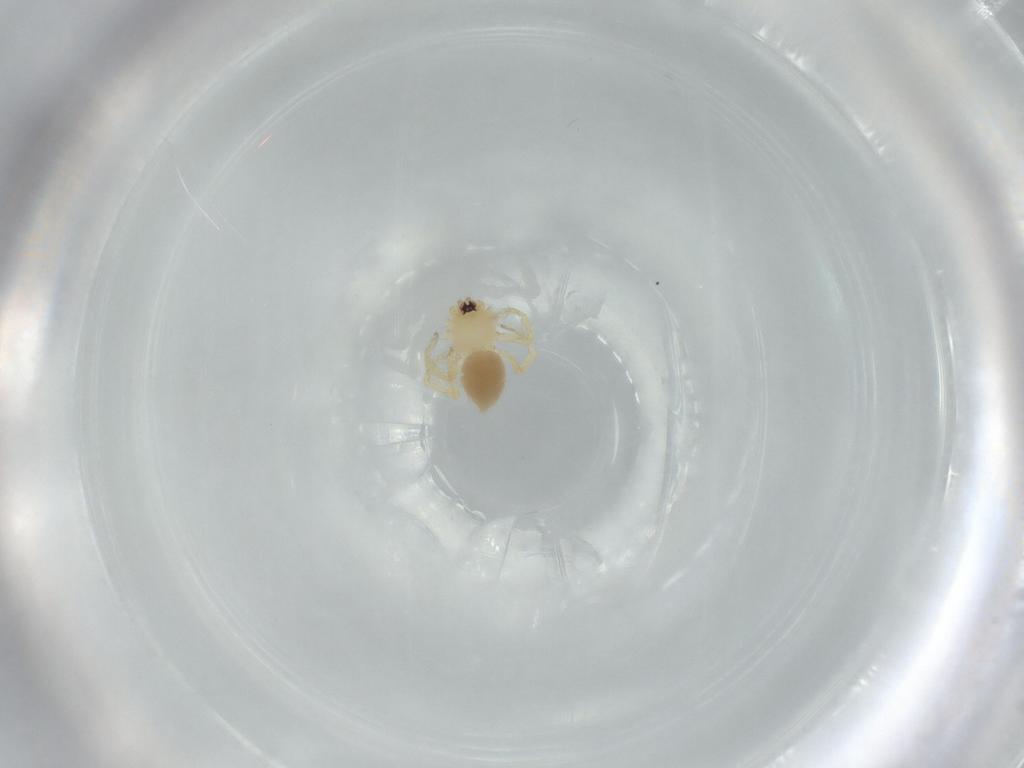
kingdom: Animalia
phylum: Arthropoda
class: Arachnida
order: Araneae
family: Oonopidae
